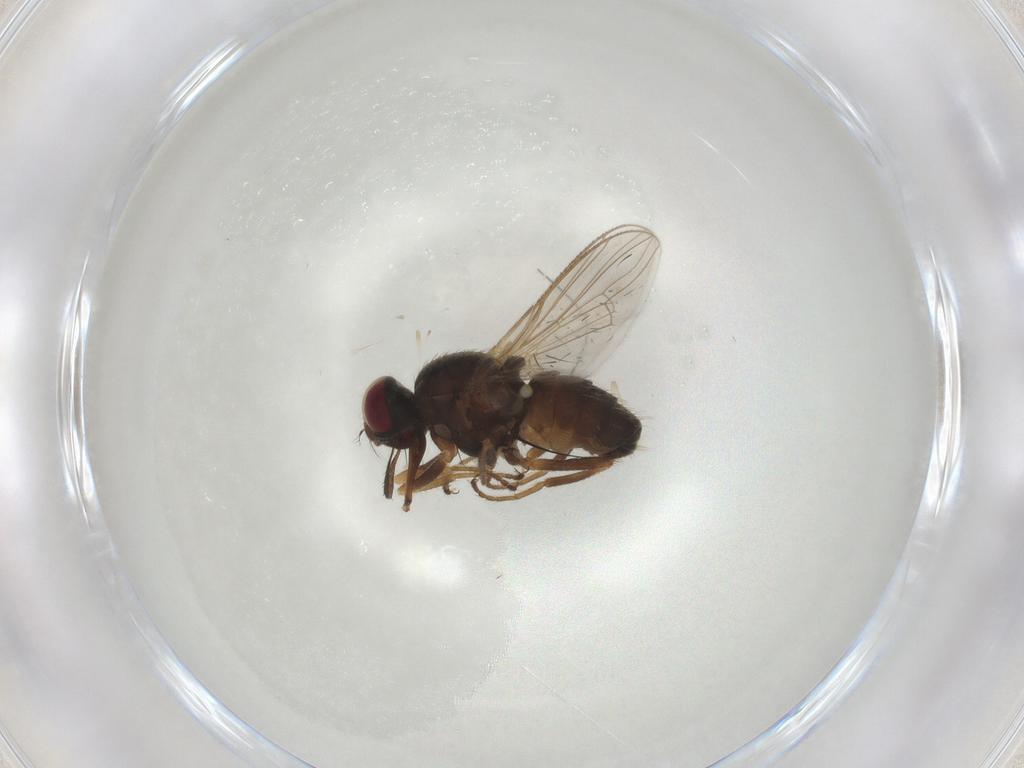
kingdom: Animalia
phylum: Arthropoda
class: Insecta
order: Diptera
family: Psychodidae
